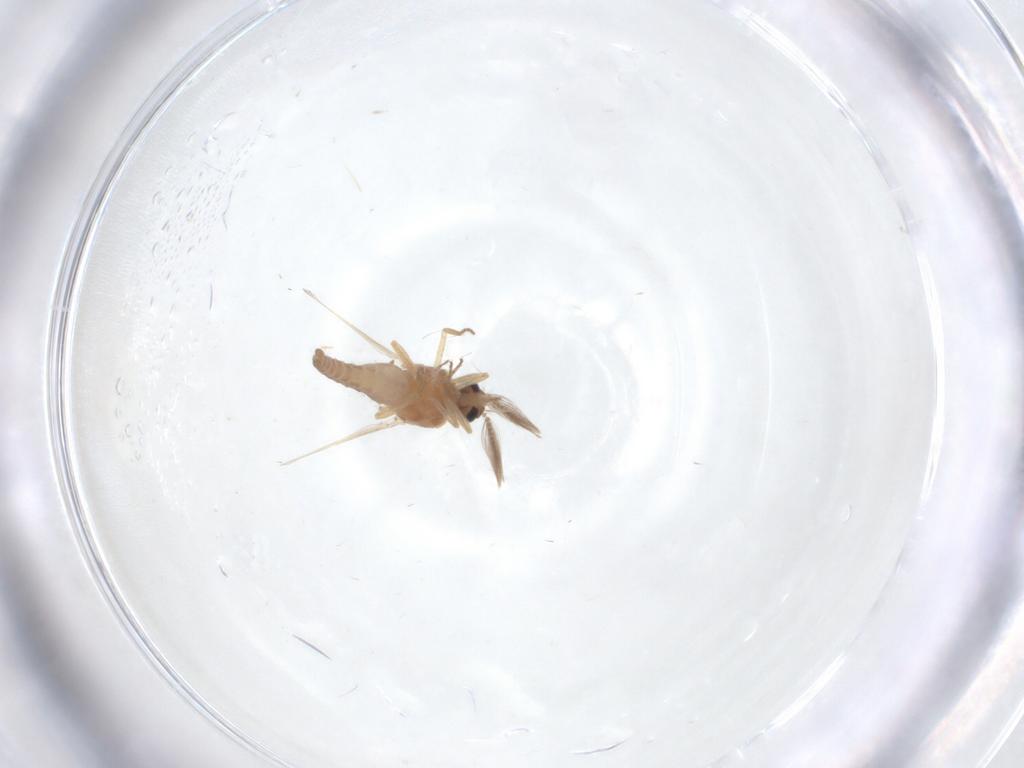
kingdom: Animalia
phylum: Arthropoda
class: Insecta
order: Diptera
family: Ceratopogonidae
